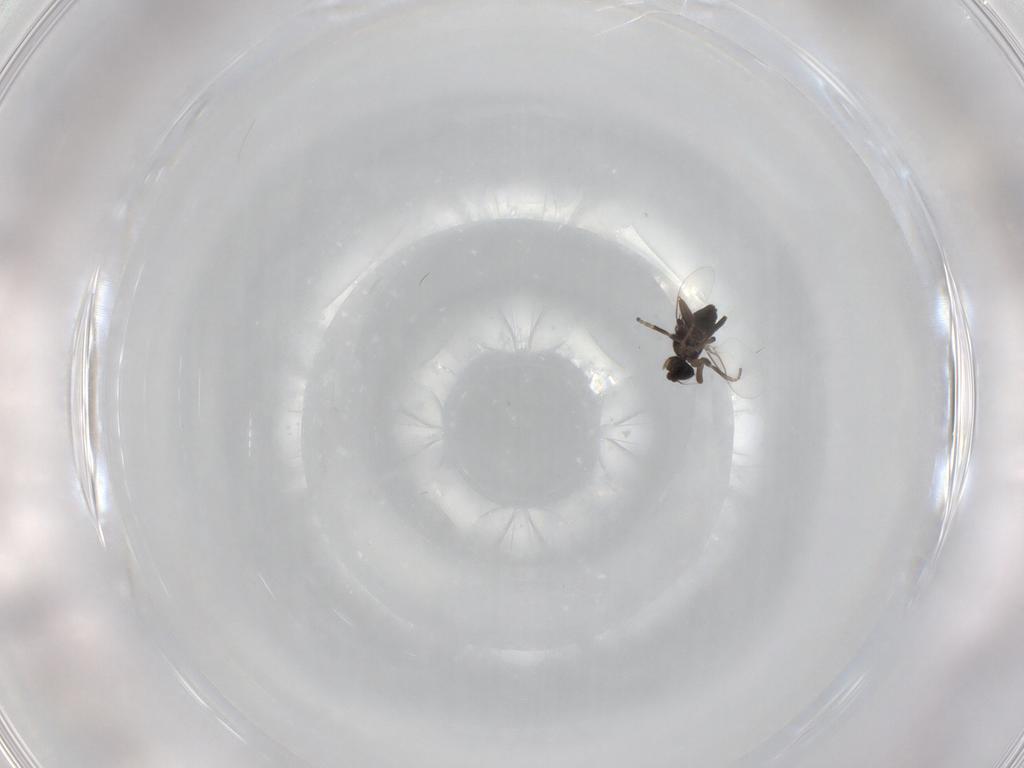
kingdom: Animalia
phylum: Arthropoda
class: Insecta
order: Diptera
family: Phoridae
